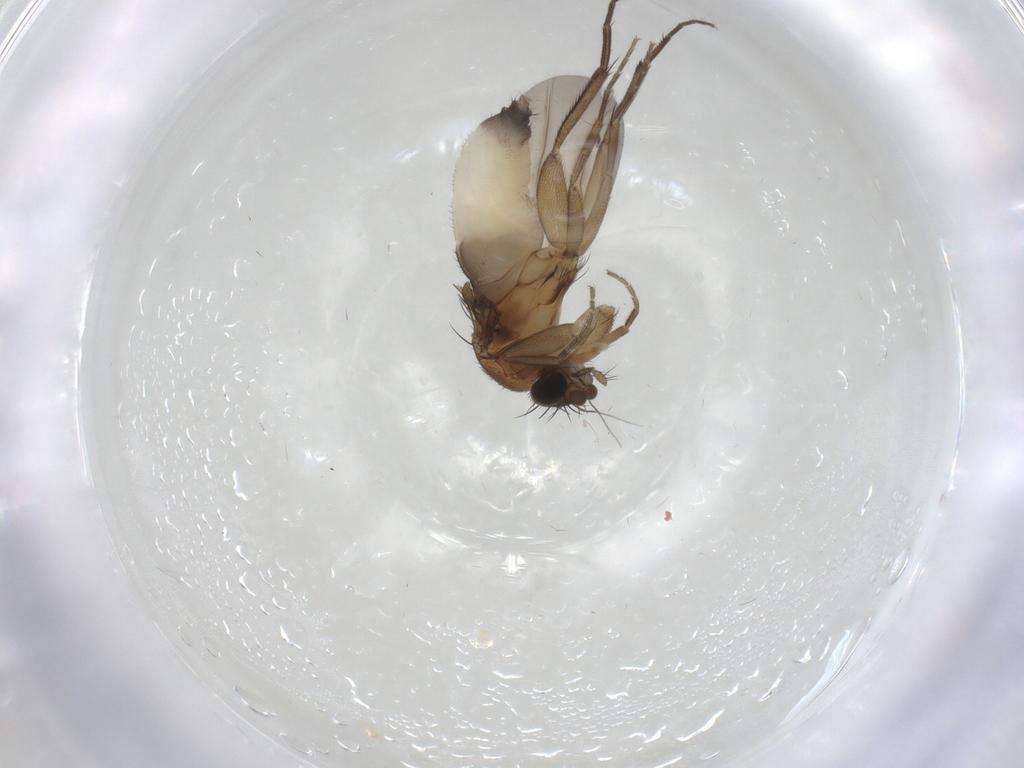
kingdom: Animalia
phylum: Arthropoda
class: Insecta
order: Diptera
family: Phoridae
